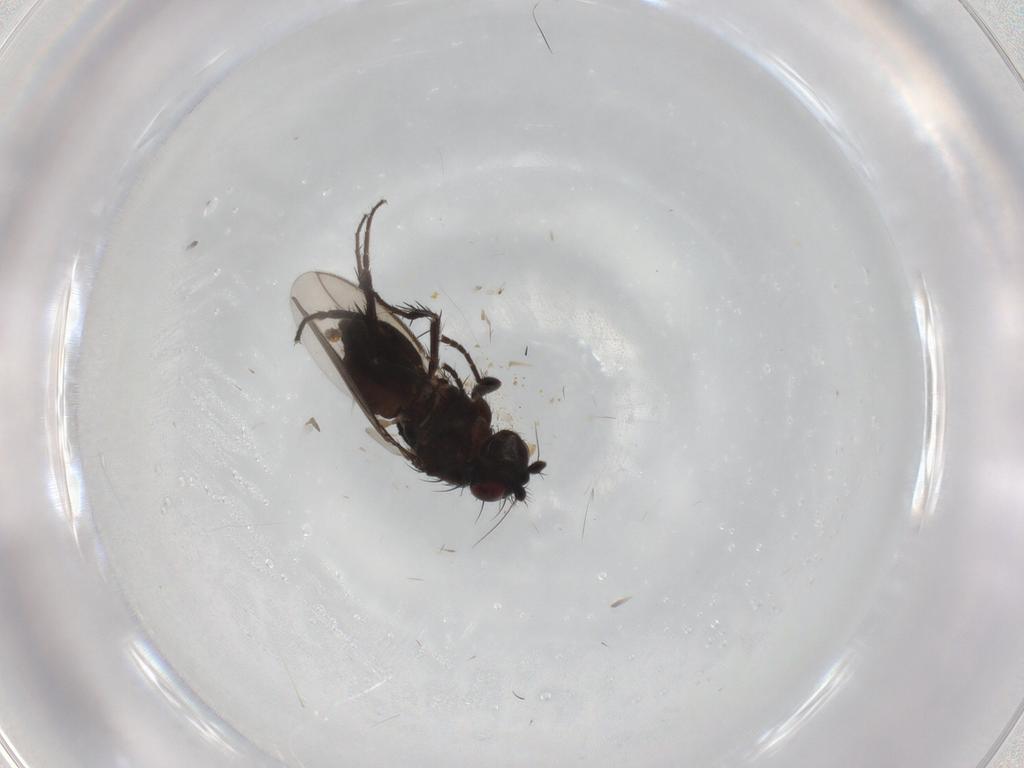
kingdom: Animalia
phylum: Arthropoda
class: Insecta
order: Diptera
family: Sphaeroceridae
